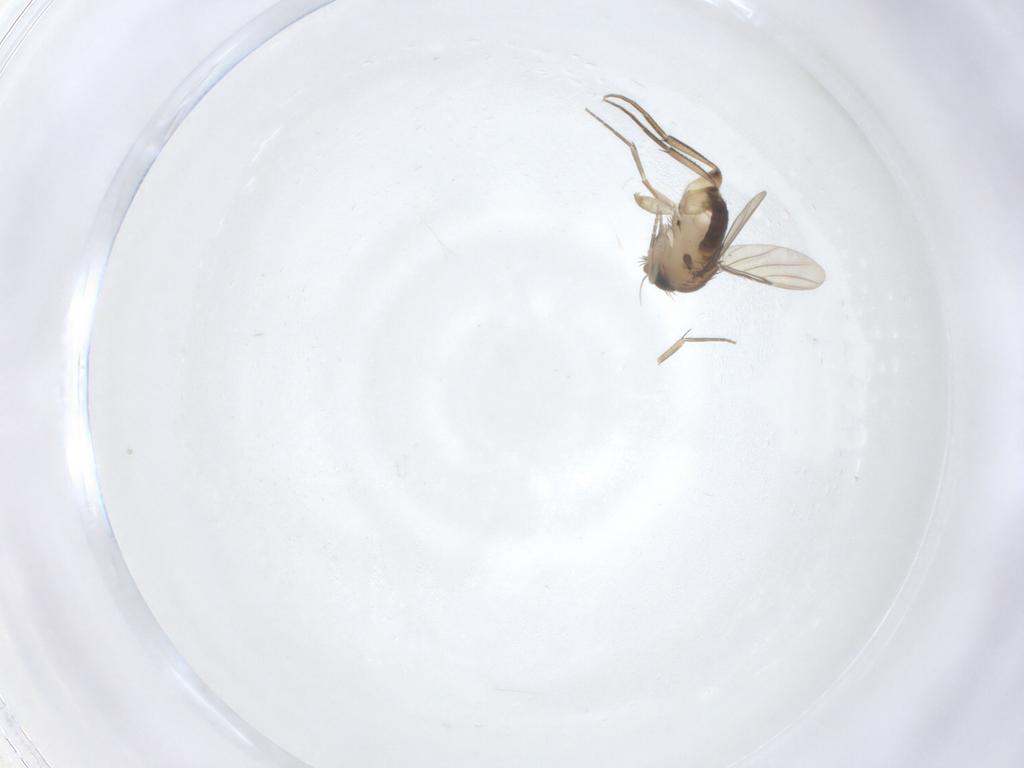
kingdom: Animalia
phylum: Arthropoda
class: Insecta
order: Diptera
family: Phoridae
